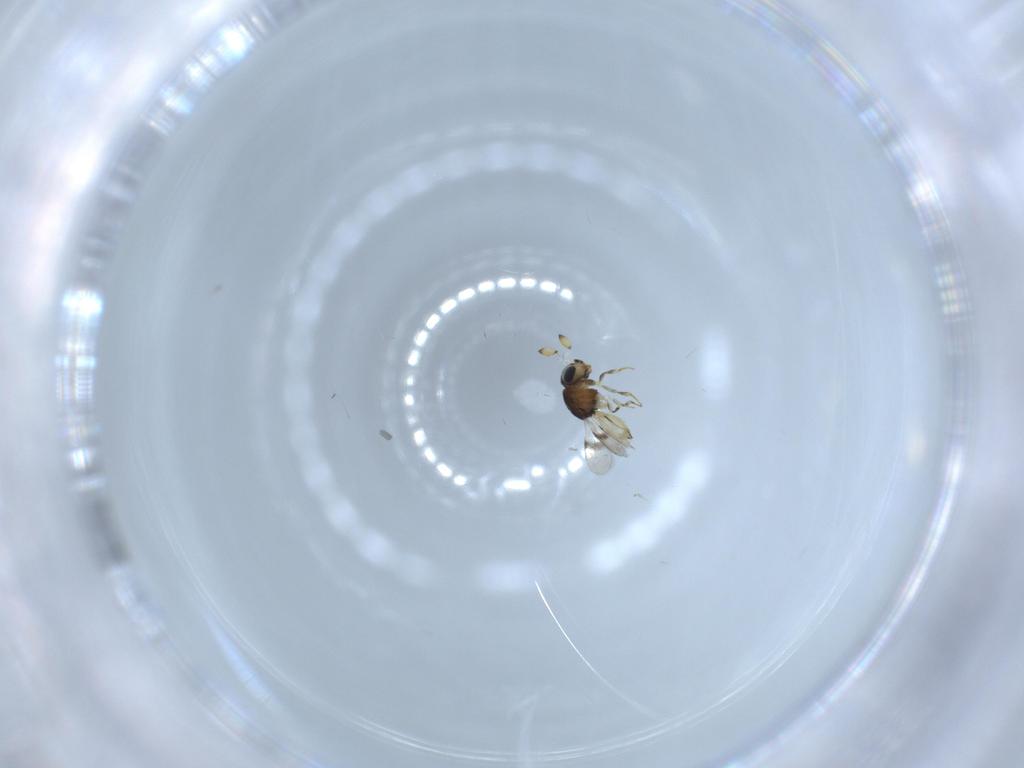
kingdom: Animalia
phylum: Arthropoda
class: Insecta
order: Hymenoptera
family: Scelionidae
